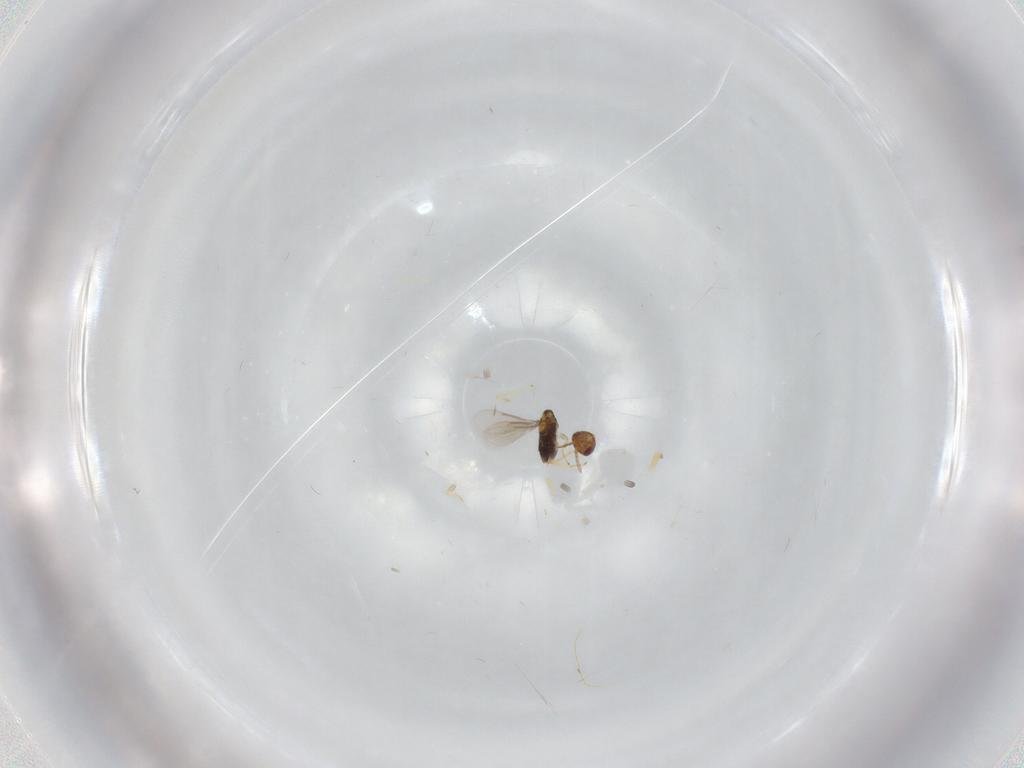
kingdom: Animalia
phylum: Arthropoda
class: Insecta
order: Hymenoptera
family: Aphelinidae
